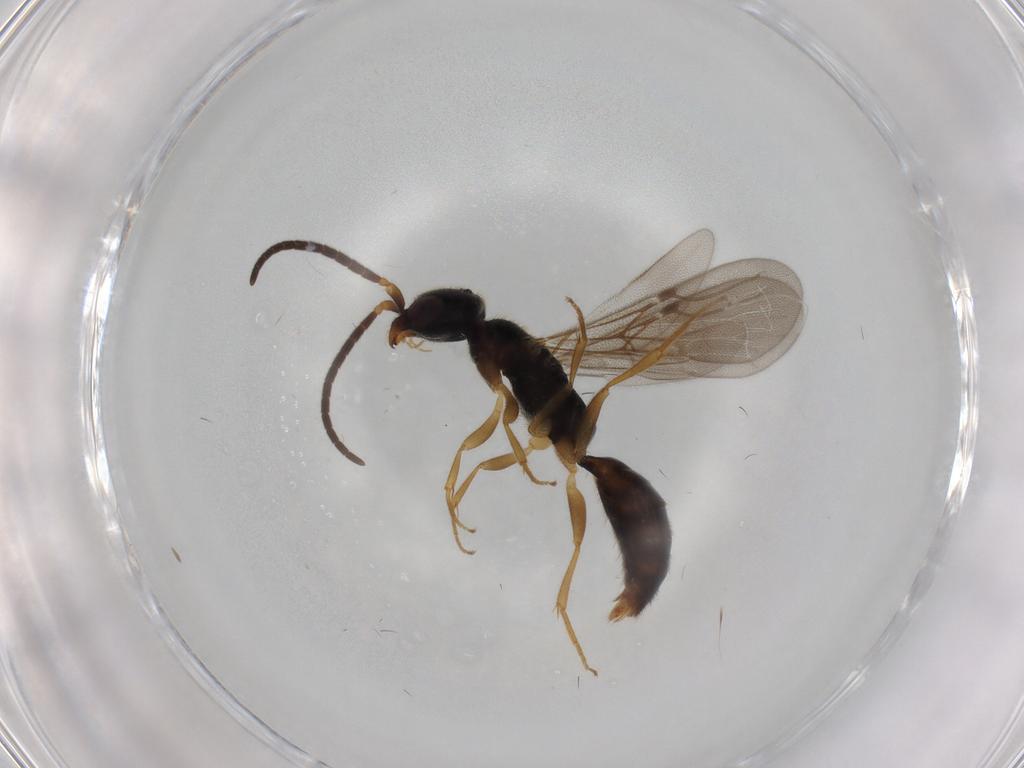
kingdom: Animalia
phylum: Arthropoda
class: Insecta
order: Hymenoptera
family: Bethylidae
